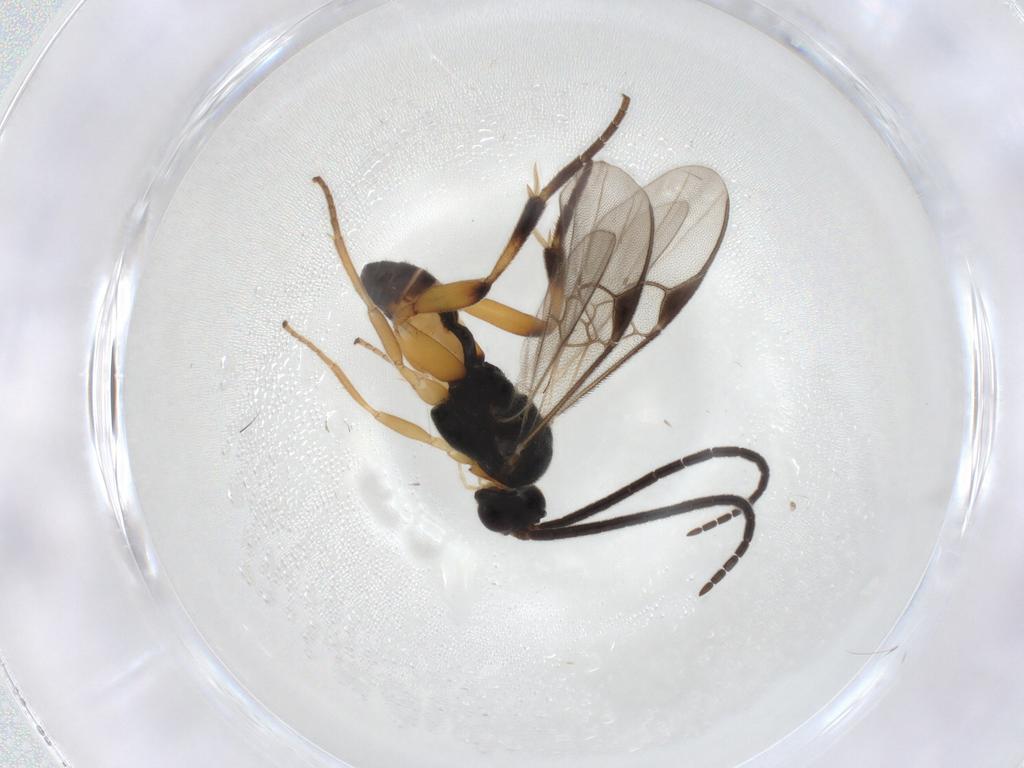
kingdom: Animalia
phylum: Arthropoda
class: Insecta
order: Hymenoptera
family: Braconidae
